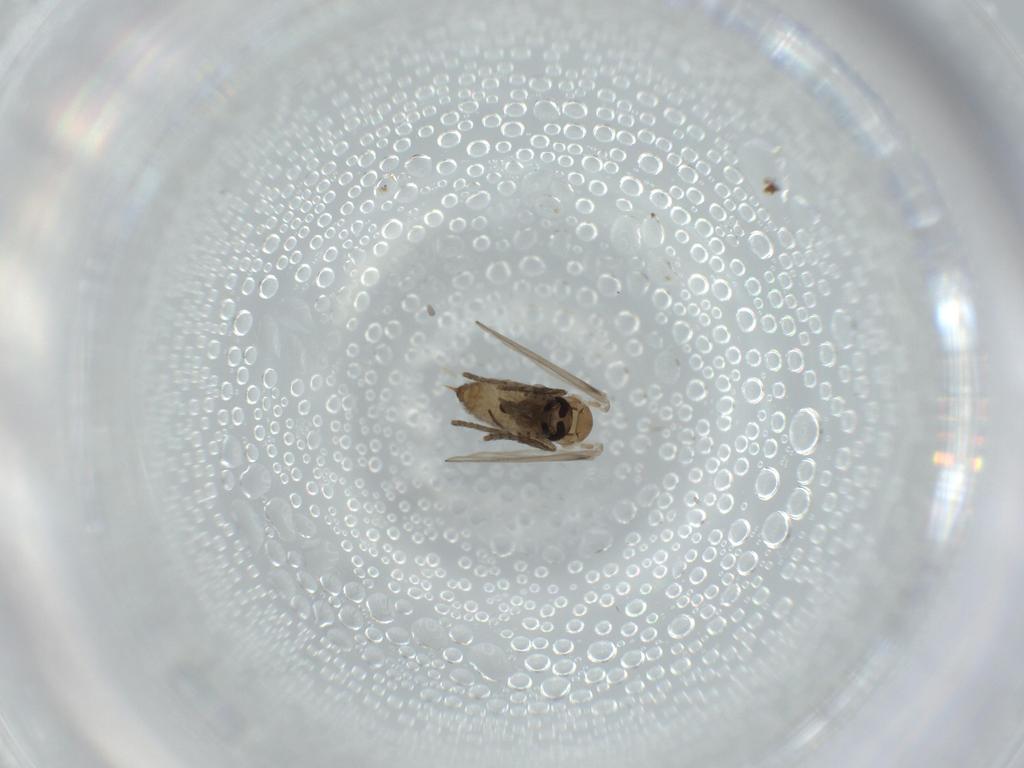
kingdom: Animalia
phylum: Arthropoda
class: Insecta
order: Diptera
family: Psychodidae
